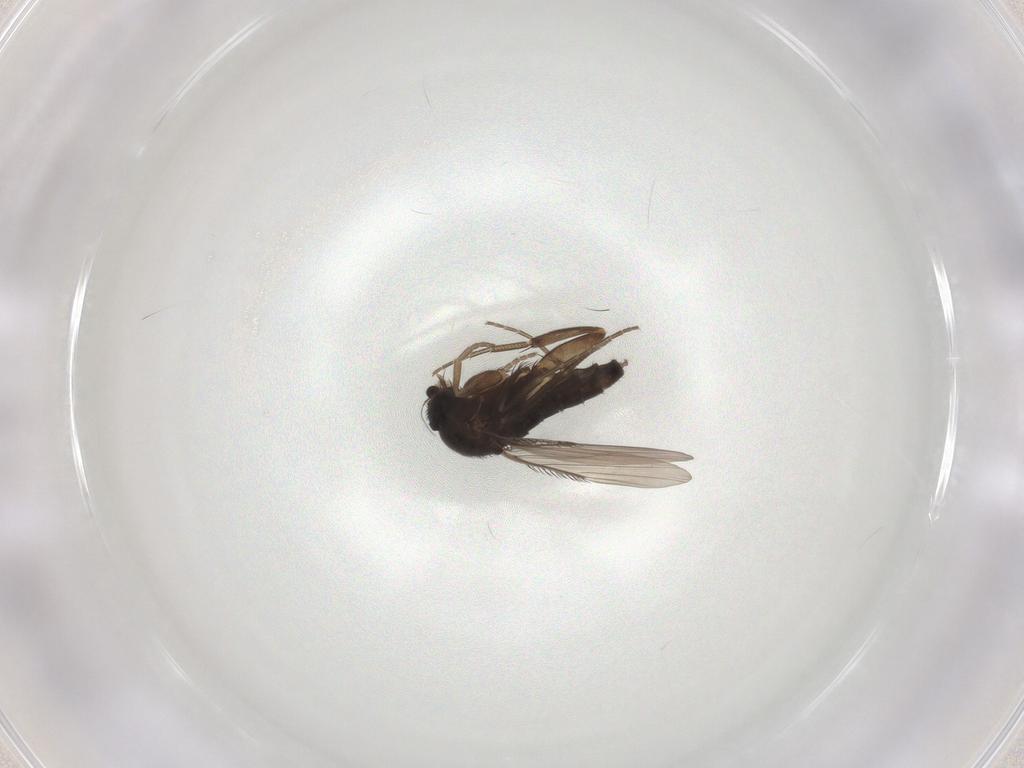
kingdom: Animalia
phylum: Arthropoda
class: Insecta
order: Diptera
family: Phoridae
